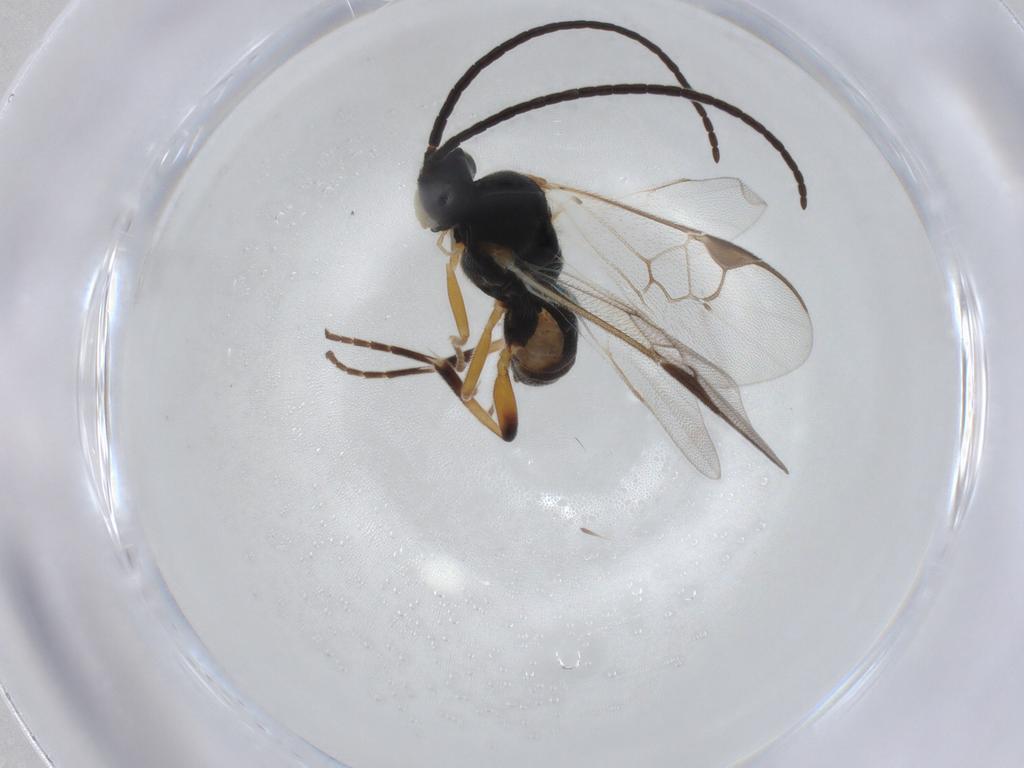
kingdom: Animalia
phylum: Arthropoda
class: Insecta
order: Hymenoptera
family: Braconidae
